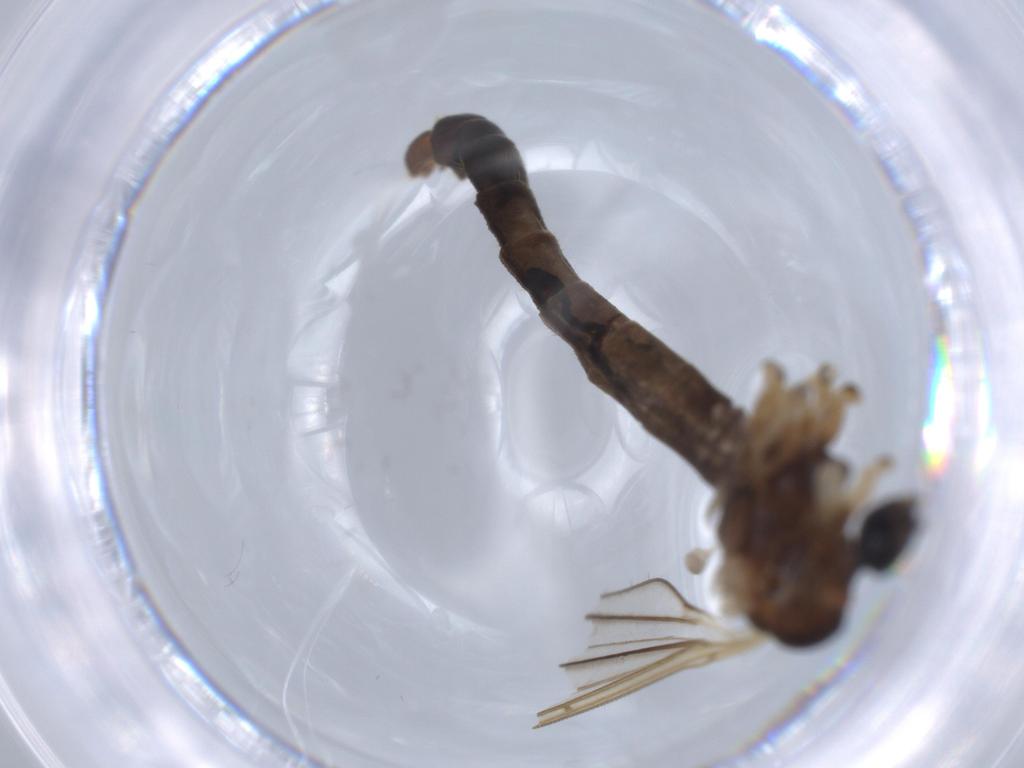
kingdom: Animalia
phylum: Arthropoda
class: Insecta
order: Diptera
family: Sciaridae
